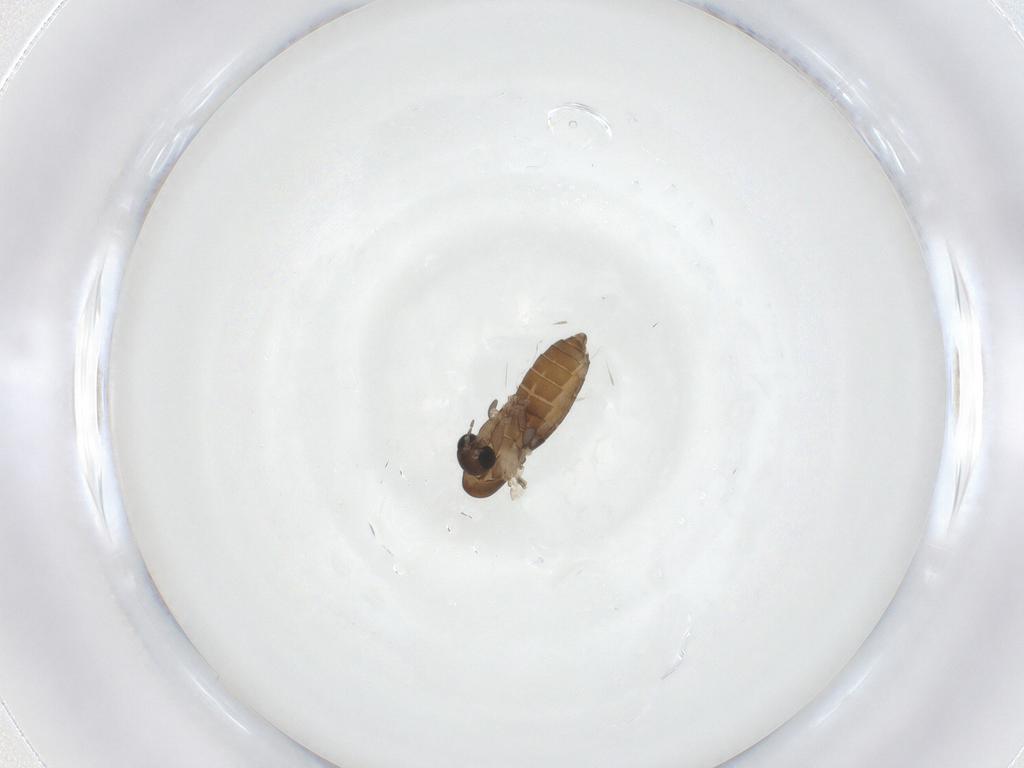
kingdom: Animalia
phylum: Arthropoda
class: Insecta
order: Diptera
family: Psychodidae
